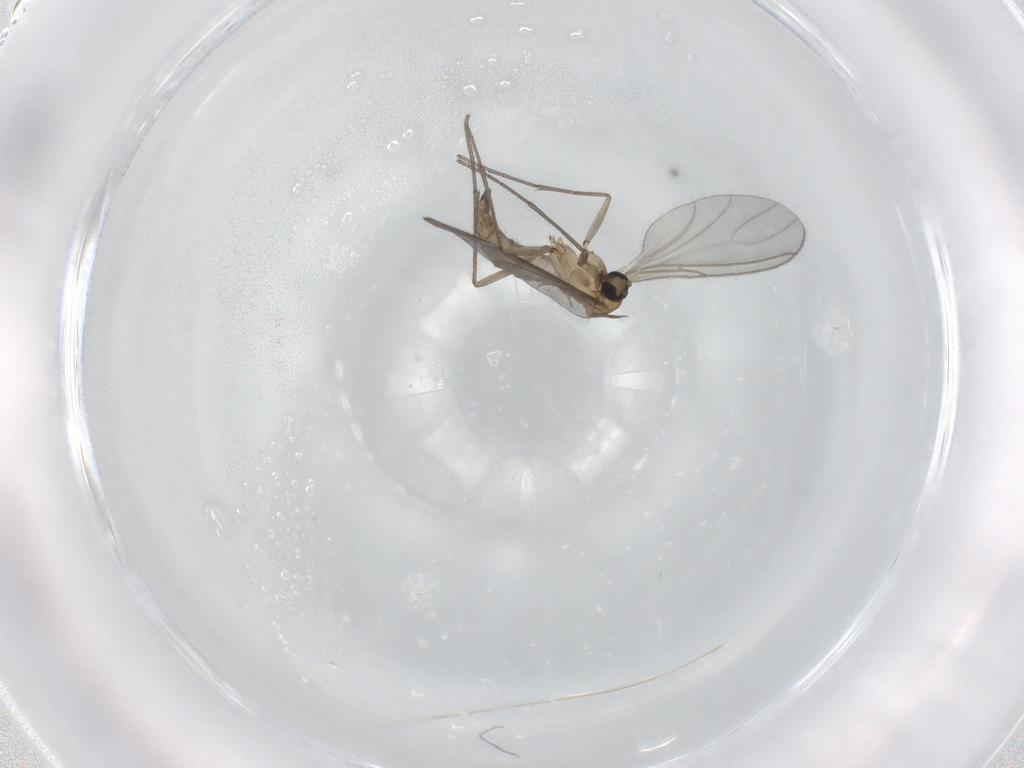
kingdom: Animalia
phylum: Arthropoda
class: Insecta
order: Diptera
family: Sciaridae
